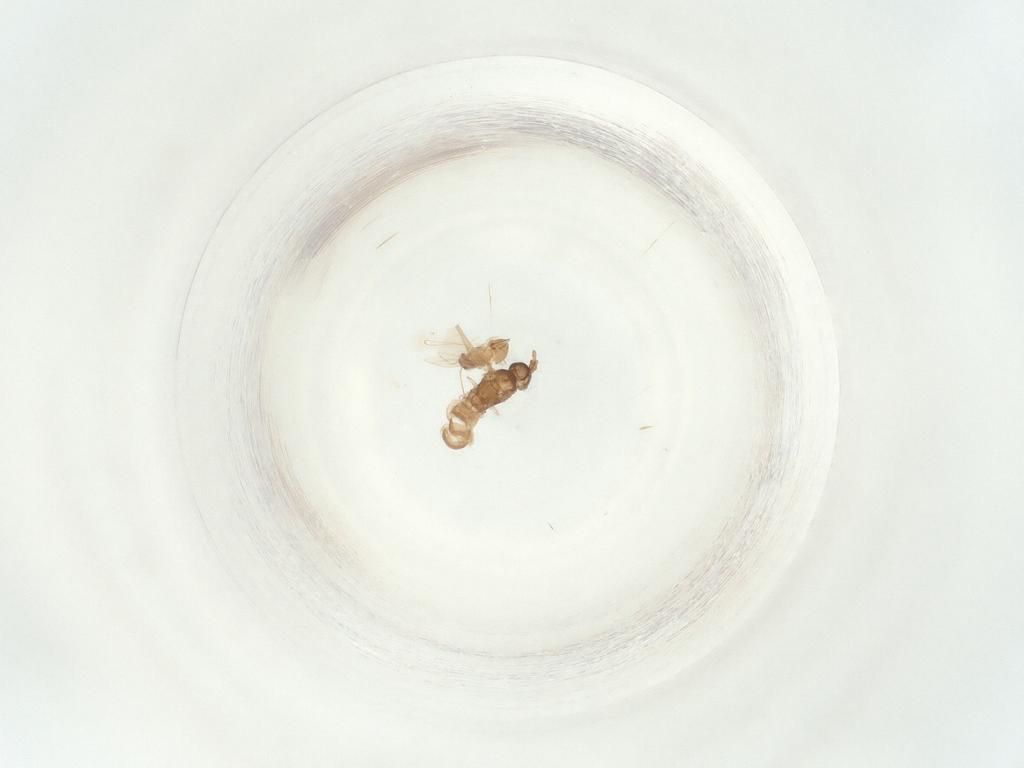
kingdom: Animalia
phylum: Arthropoda
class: Insecta
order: Diptera
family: Sciaridae
